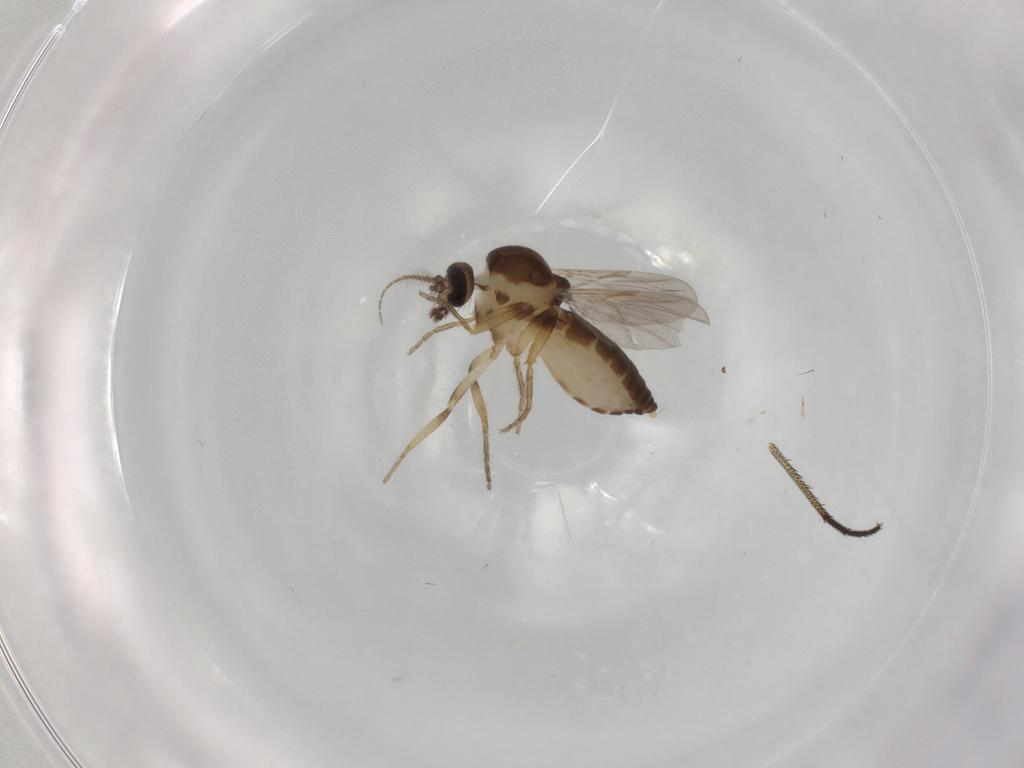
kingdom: Animalia
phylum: Arthropoda
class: Insecta
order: Diptera
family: Ceratopogonidae
